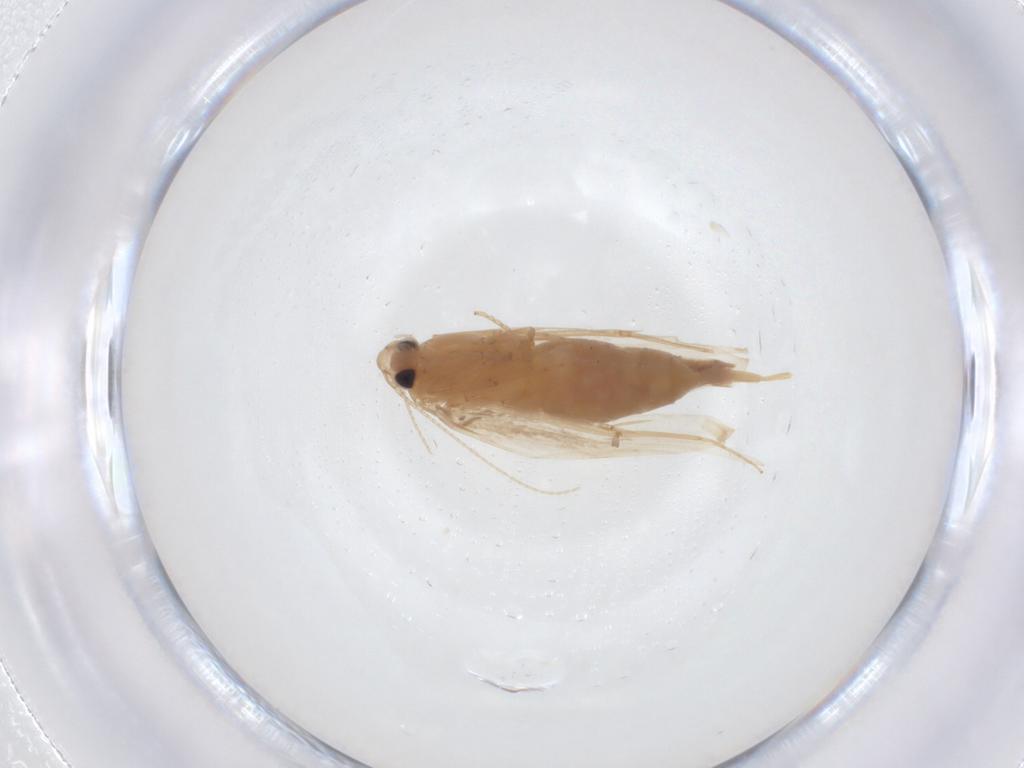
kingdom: Animalia
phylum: Arthropoda
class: Insecta
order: Lepidoptera
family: Tineidae
